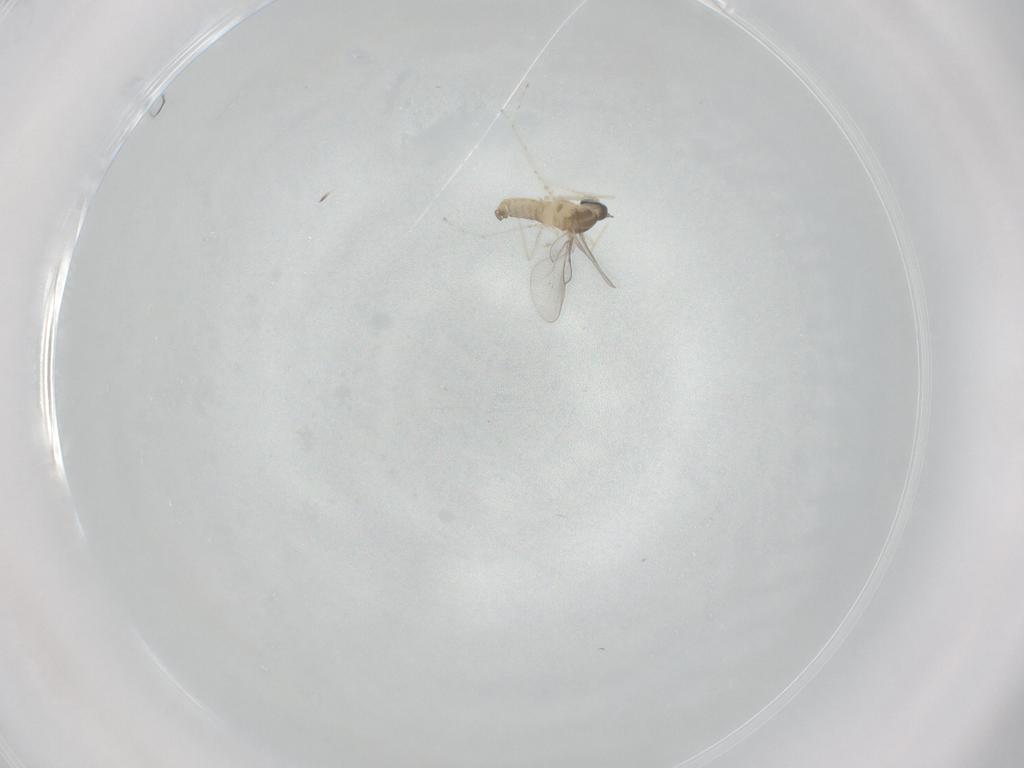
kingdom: Animalia
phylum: Arthropoda
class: Insecta
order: Diptera
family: Cecidomyiidae
